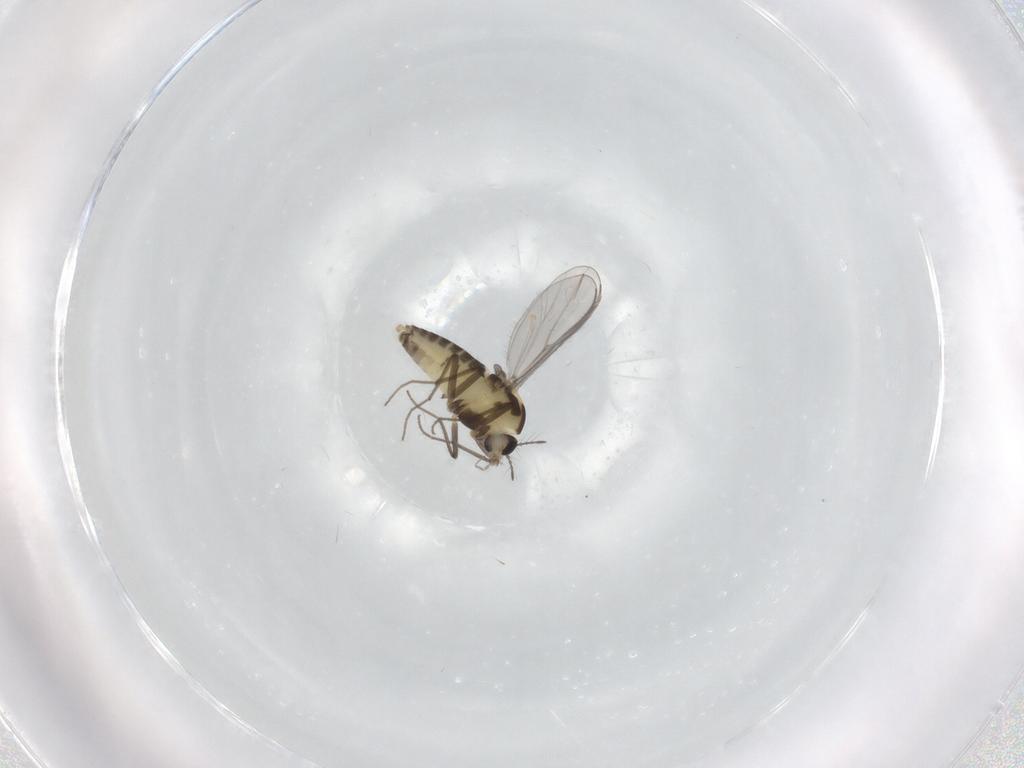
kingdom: Animalia
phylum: Arthropoda
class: Insecta
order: Diptera
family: Chironomidae
